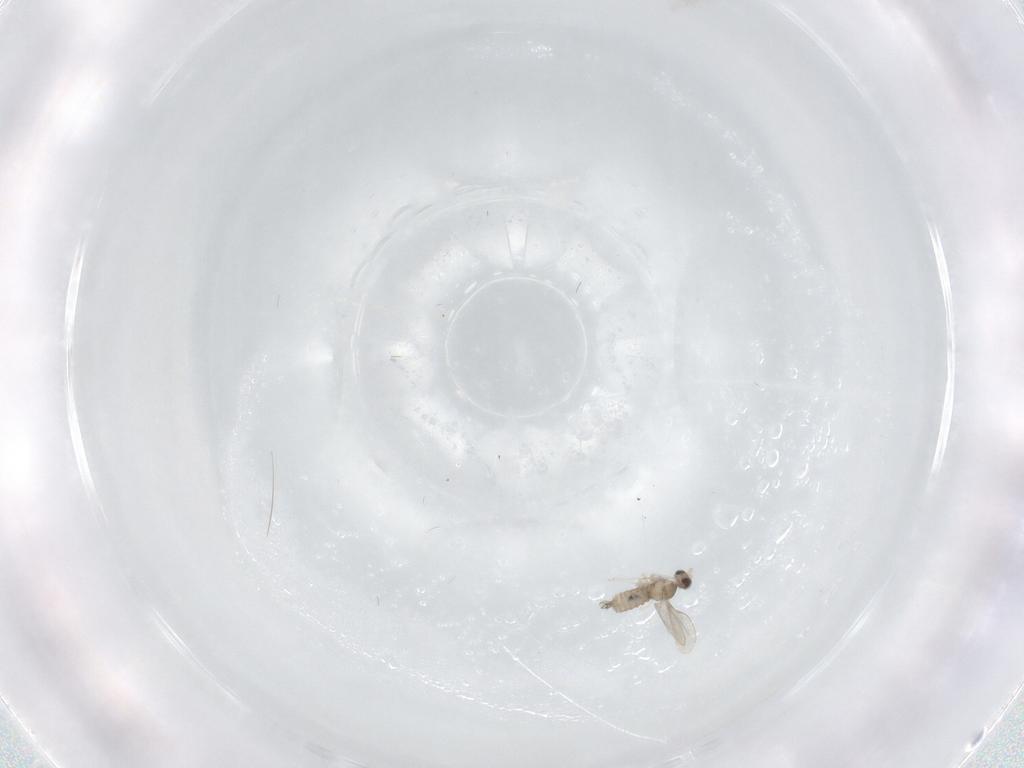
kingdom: Animalia
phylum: Arthropoda
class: Insecta
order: Diptera
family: Cecidomyiidae
